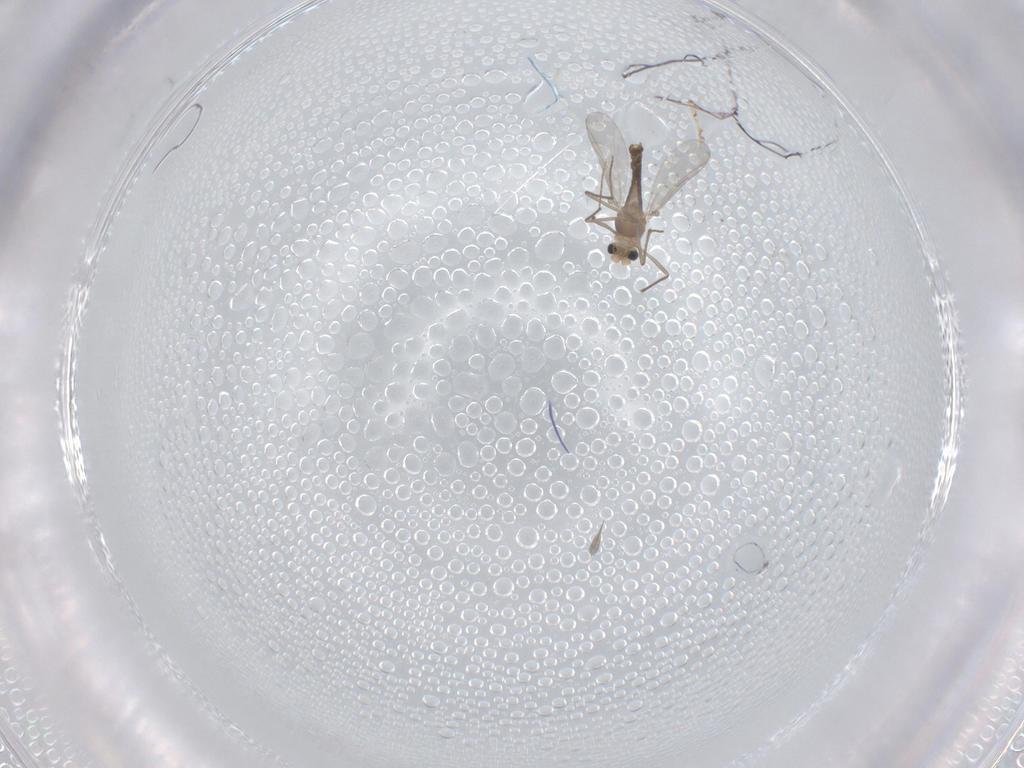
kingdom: Animalia
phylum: Arthropoda
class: Insecta
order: Diptera
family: Chironomidae
